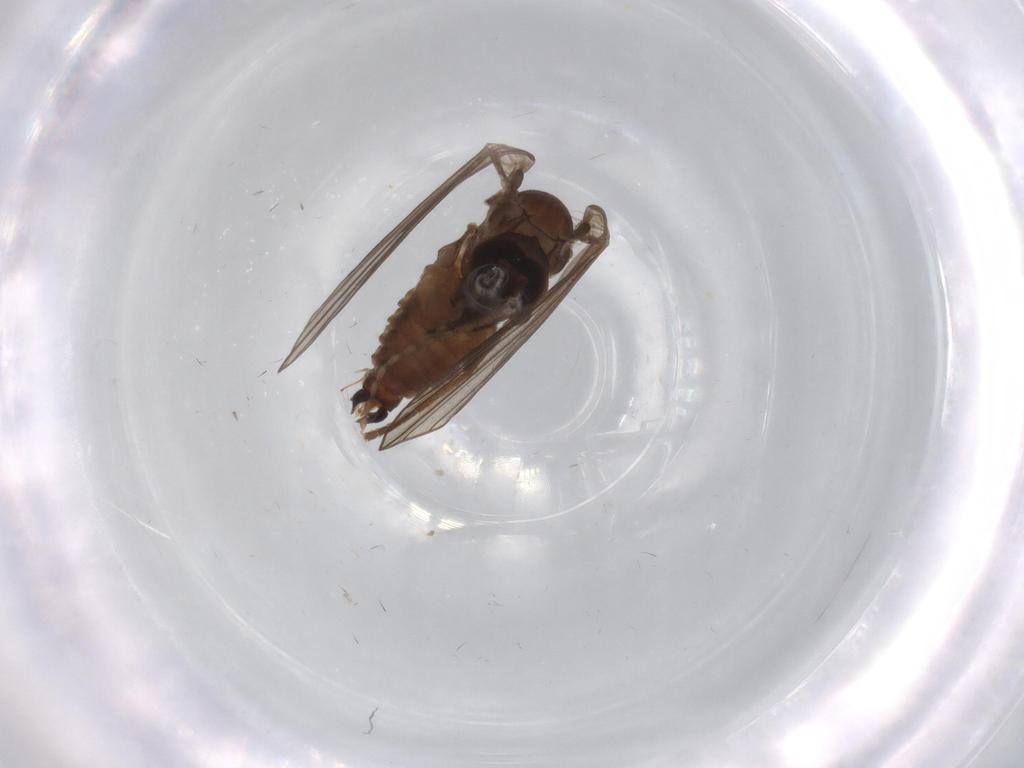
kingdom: Animalia
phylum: Arthropoda
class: Insecta
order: Diptera
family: Psychodidae
